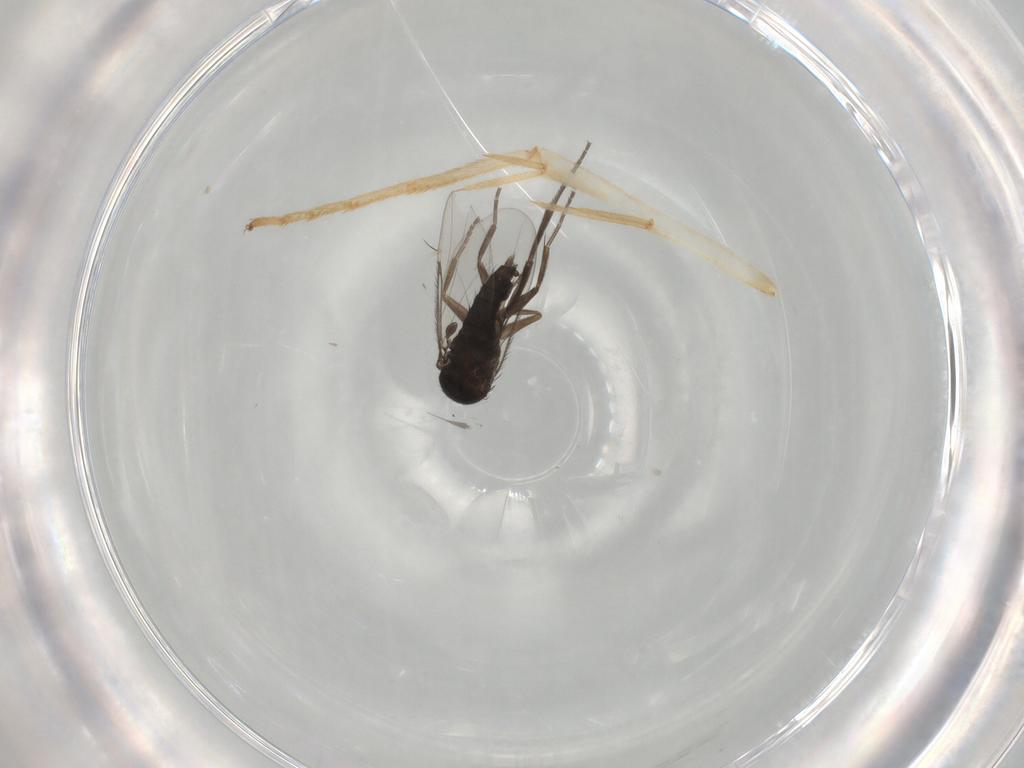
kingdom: Animalia
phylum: Arthropoda
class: Insecta
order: Diptera
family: Phoridae
